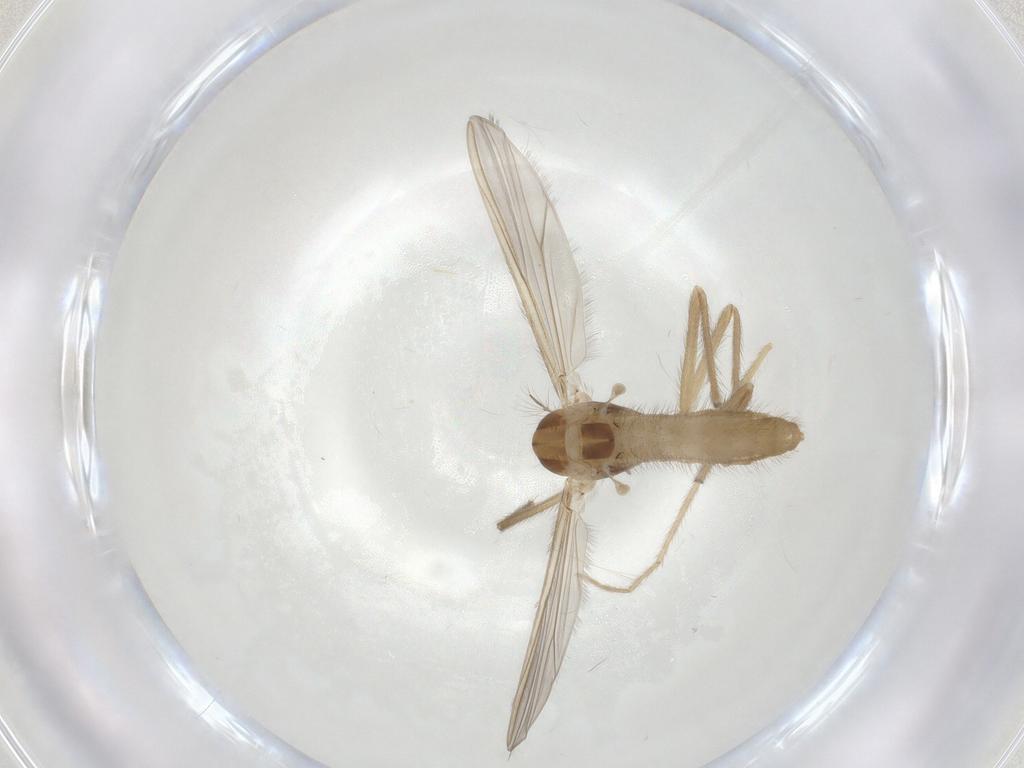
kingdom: Animalia
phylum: Arthropoda
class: Insecta
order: Diptera
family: Chironomidae
